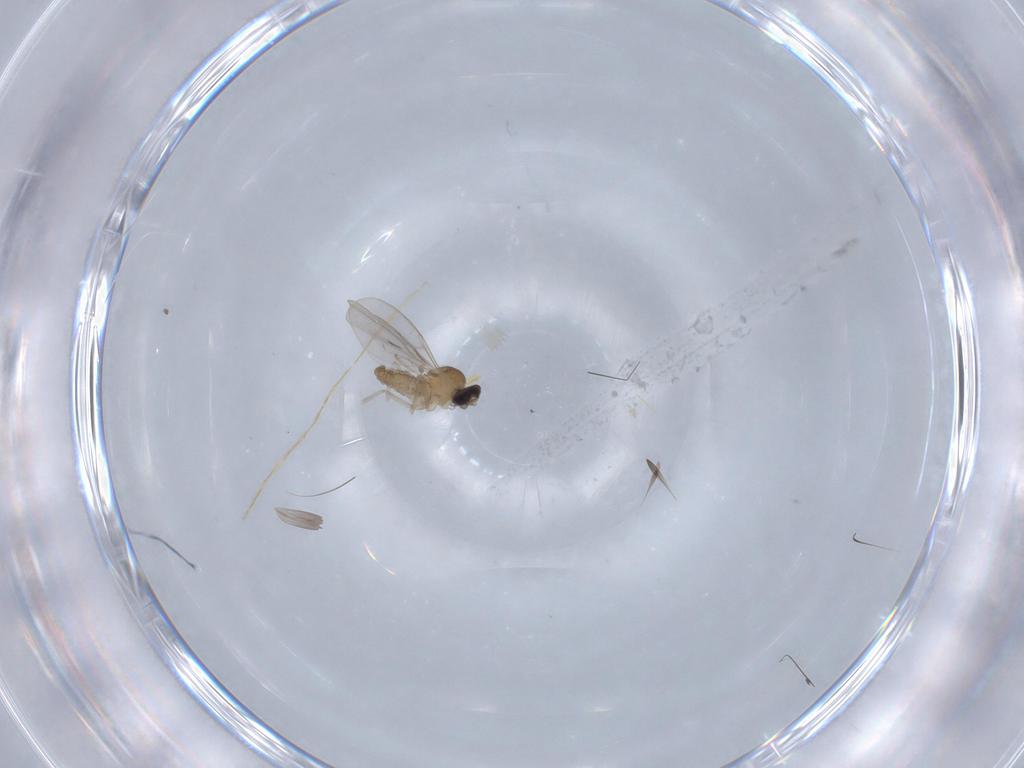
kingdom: Animalia
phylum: Arthropoda
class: Insecta
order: Diptera
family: Cecidomyiidae
